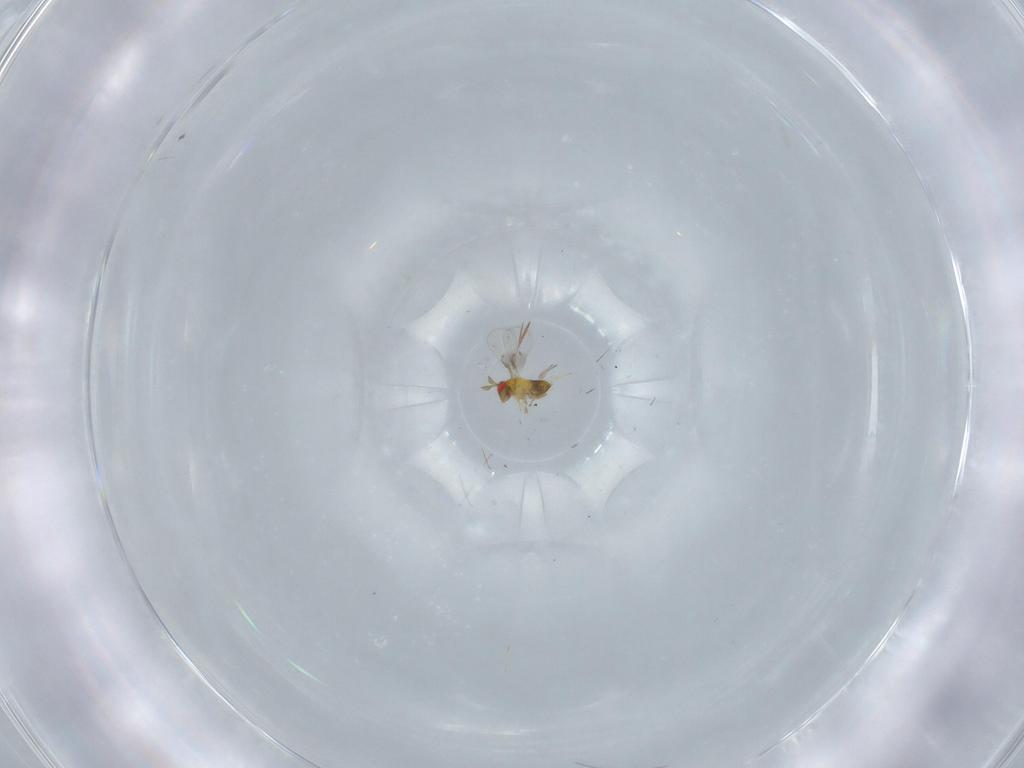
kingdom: Animalia
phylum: Arthropoda
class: Insecta
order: Hymenoptera
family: Trichogrammatidae
